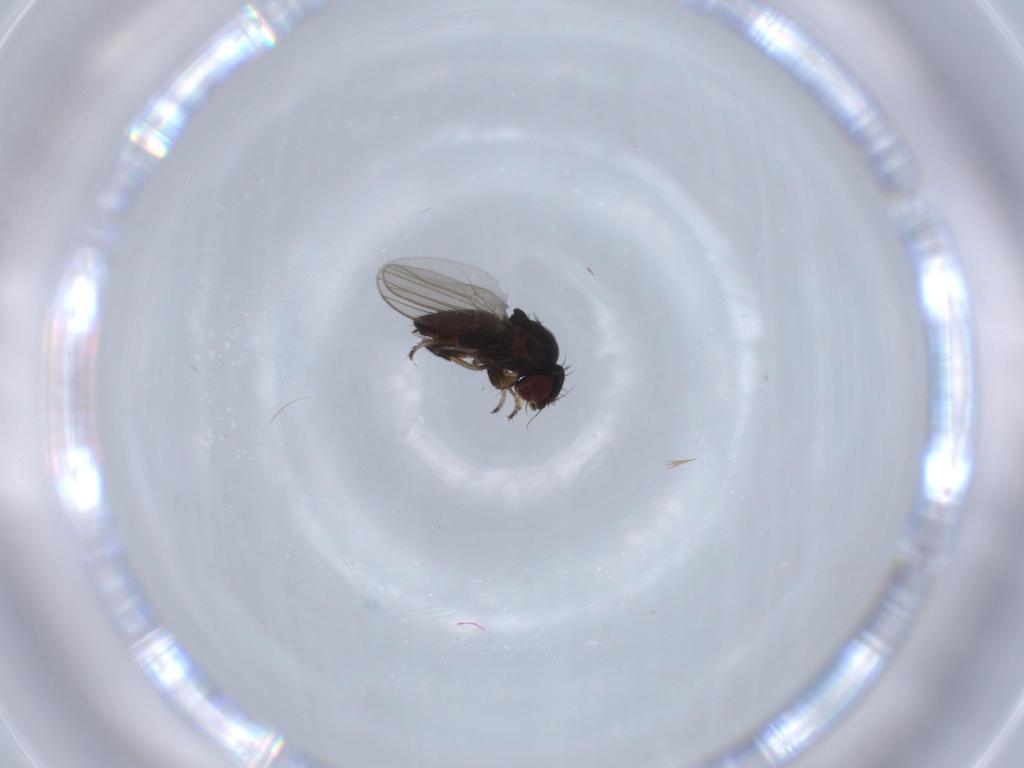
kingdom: Animalia
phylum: Arthropoda
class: Insecta
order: Diptera
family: Milichiidae
